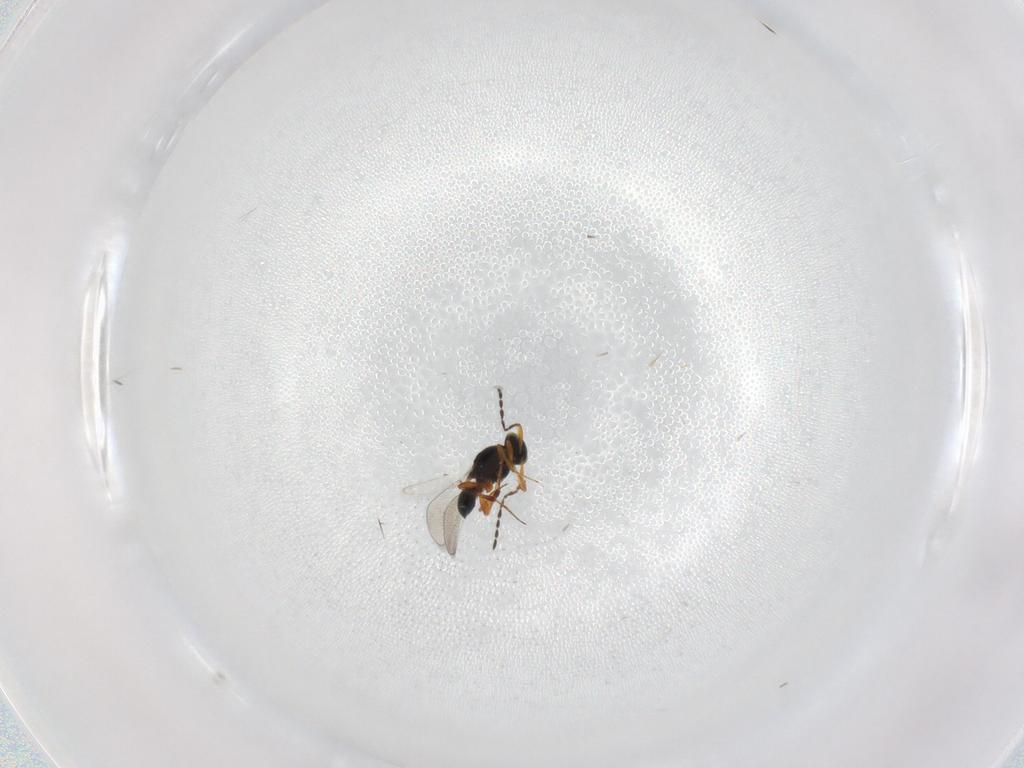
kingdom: Animalia
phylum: Arthropoda
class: Insecta
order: Hymenoptera
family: Platygastridae
